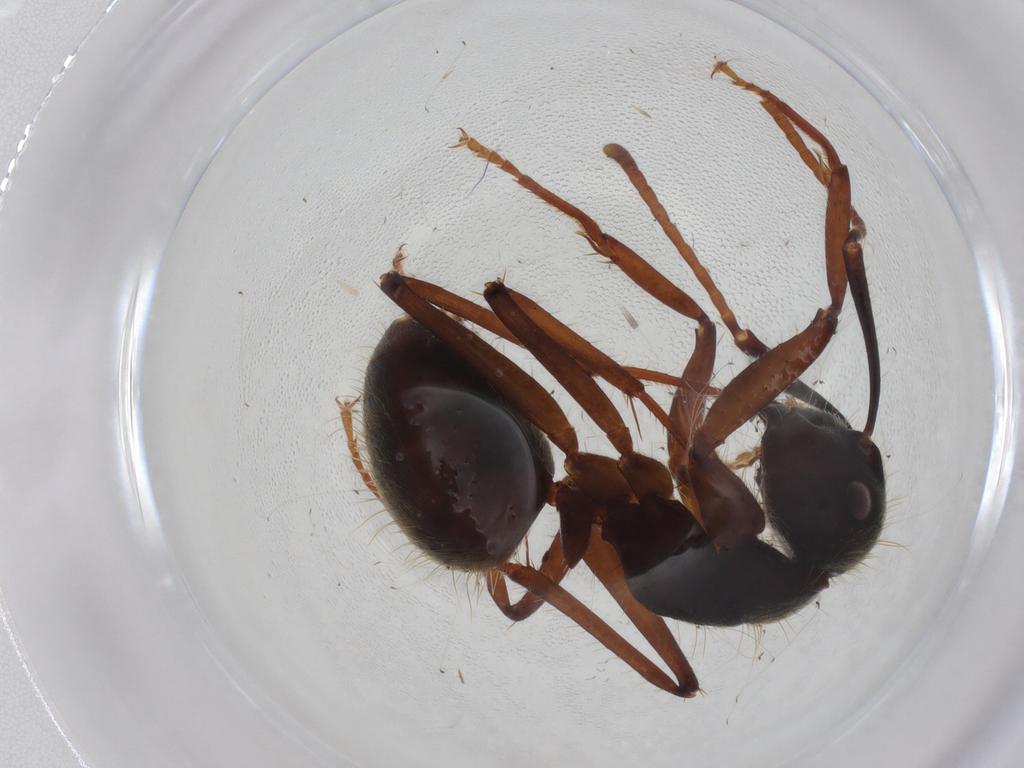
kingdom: Animalia
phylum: Arthropoda
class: Insecta
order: Hymenoptera
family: Formicidae
